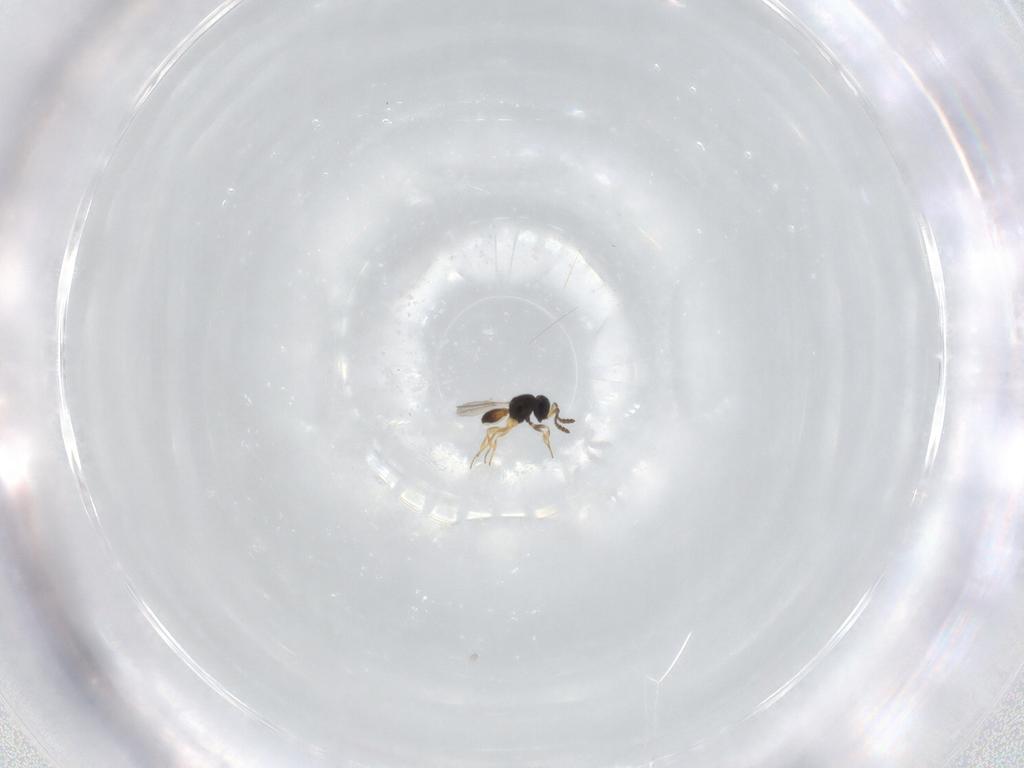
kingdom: Animalia
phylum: Arthropoda
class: Insecta
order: Hymenoptera
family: Scelionidae
